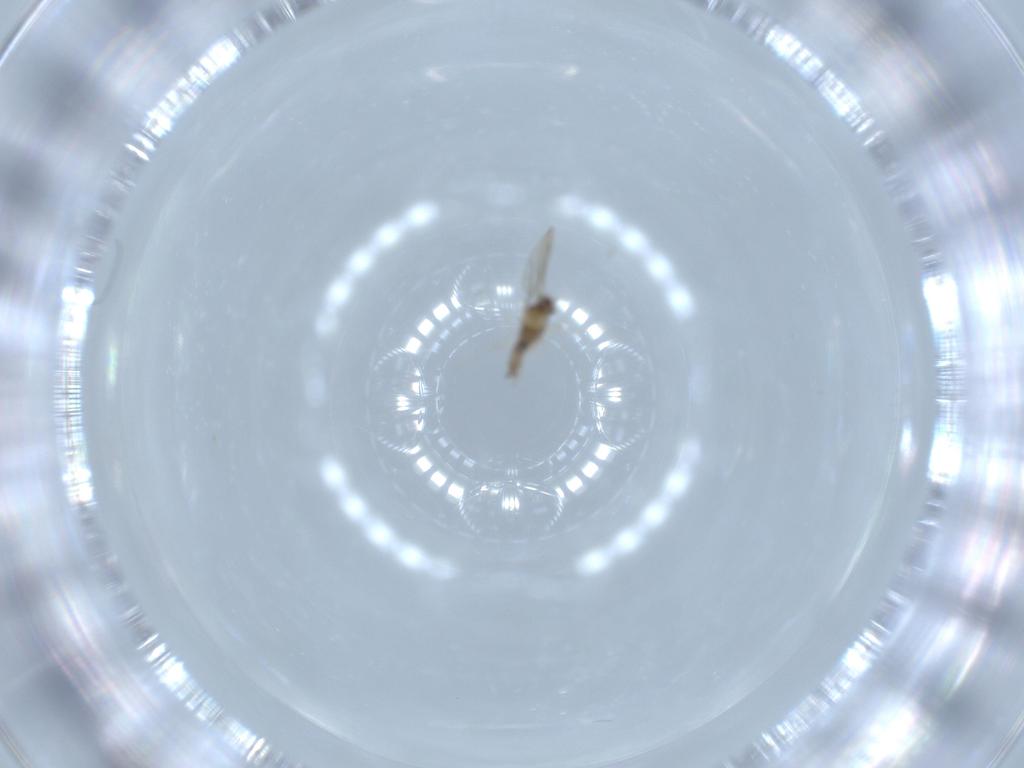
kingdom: Animalia
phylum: Arthropoda
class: Insecta
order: Diptera
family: Cecidomyiidae
